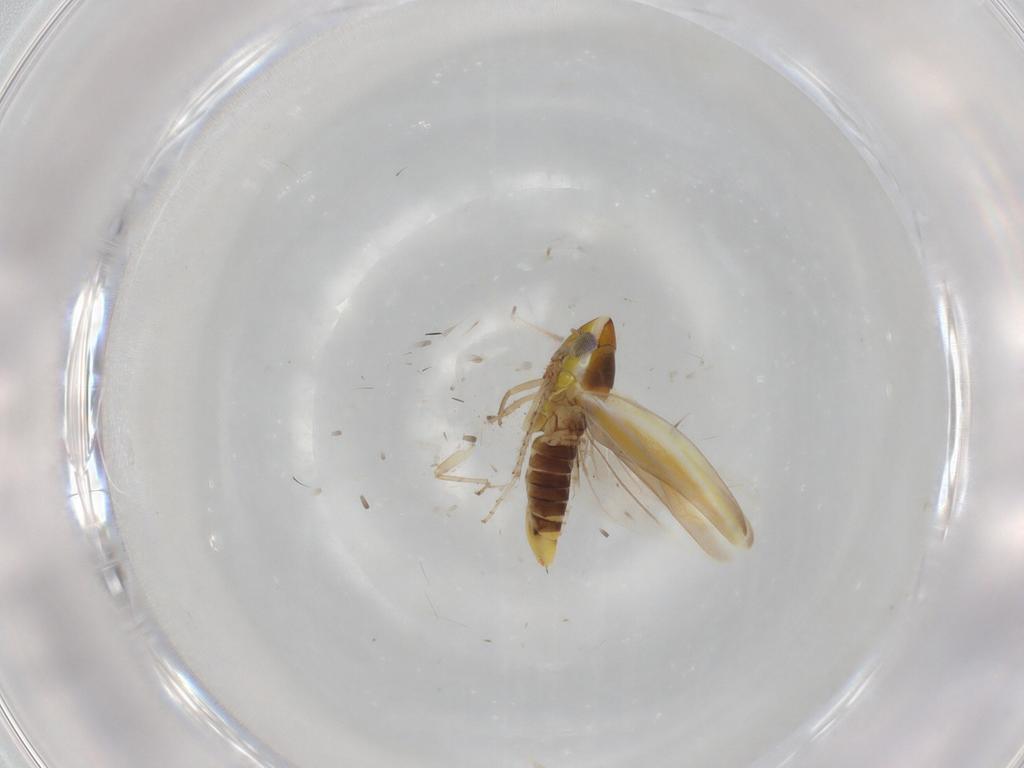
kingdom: Animalia
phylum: Arthropoda
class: Insecta
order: Hemiptera
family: Cicadellidae
